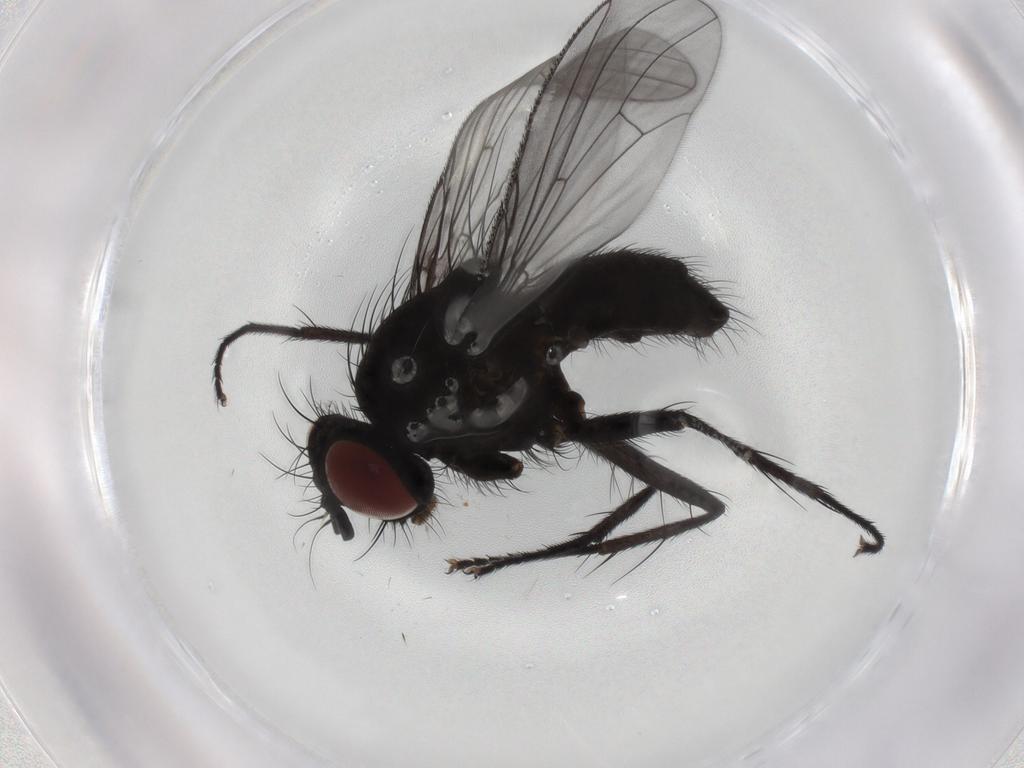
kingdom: Animalia
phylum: Arthropoda
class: Insecta
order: Diptera
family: Muscidae
